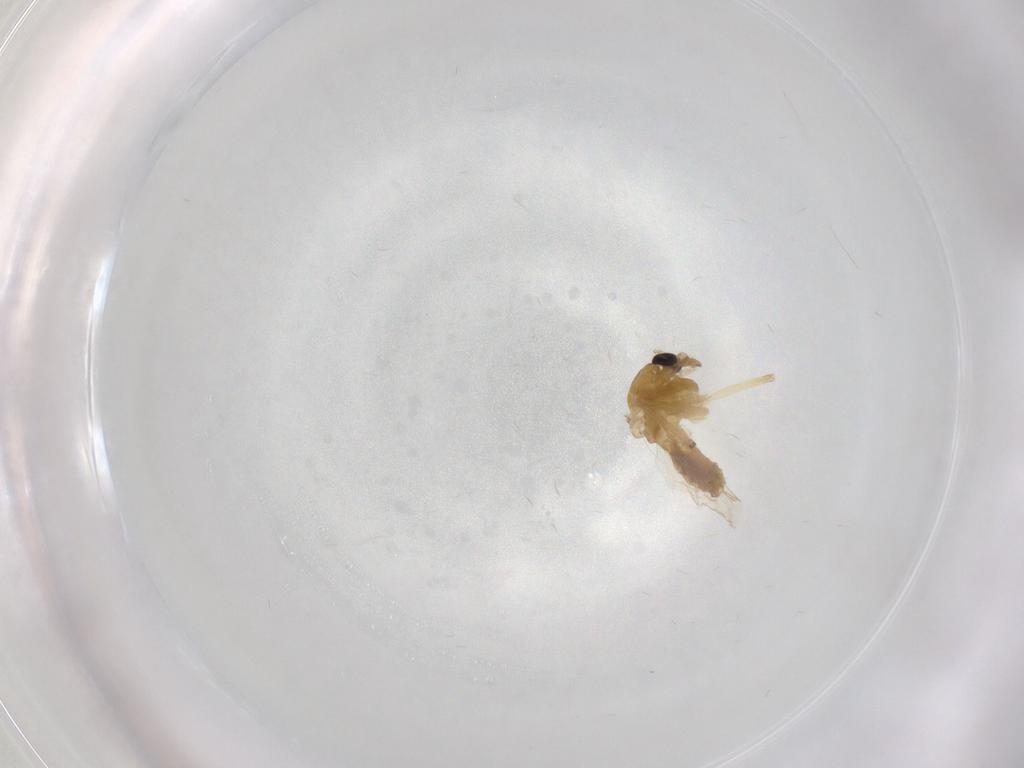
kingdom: Animalia
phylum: Arthropoda
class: Insecta
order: Diptera
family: Chironomidae
